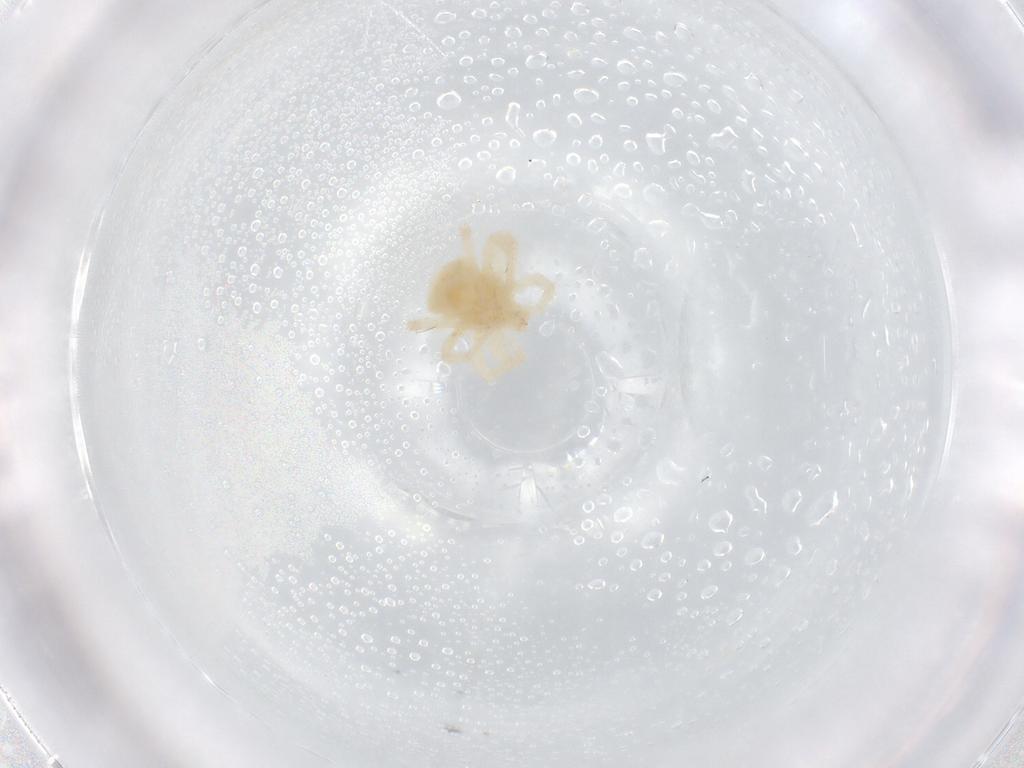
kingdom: Animalia
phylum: Arthropoda
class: Arachnida
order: Trombidiformes
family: Anystidae
